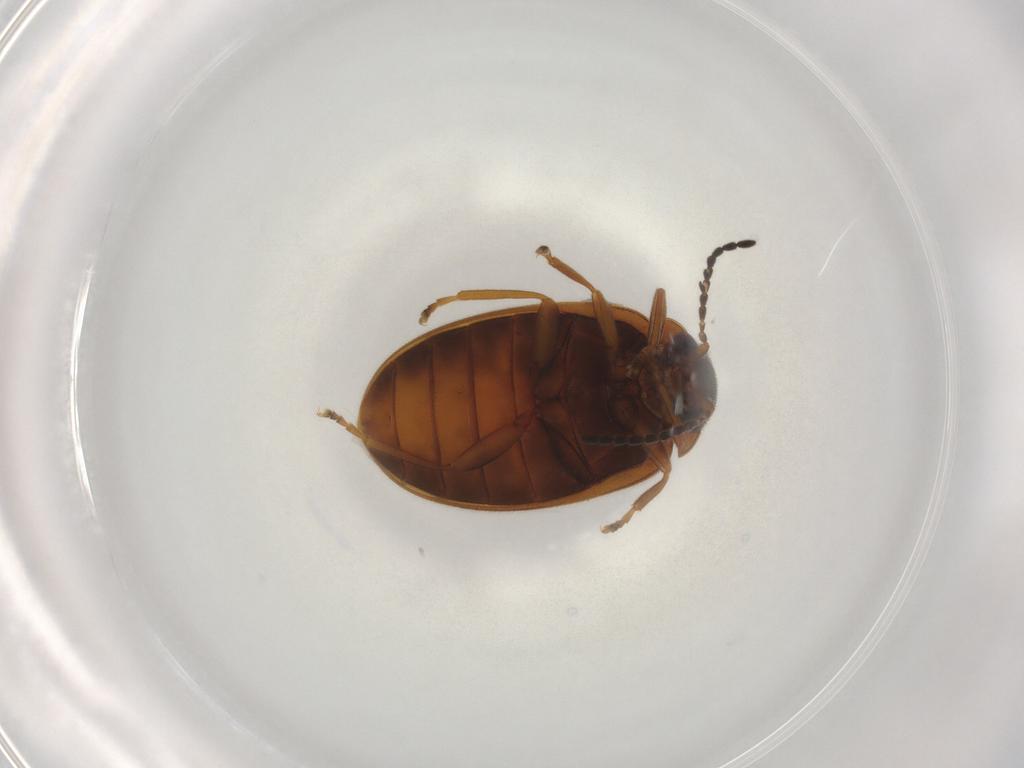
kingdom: Animalia
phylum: Arthropoda
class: Insecta
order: Coleoptera
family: Scirtidae
